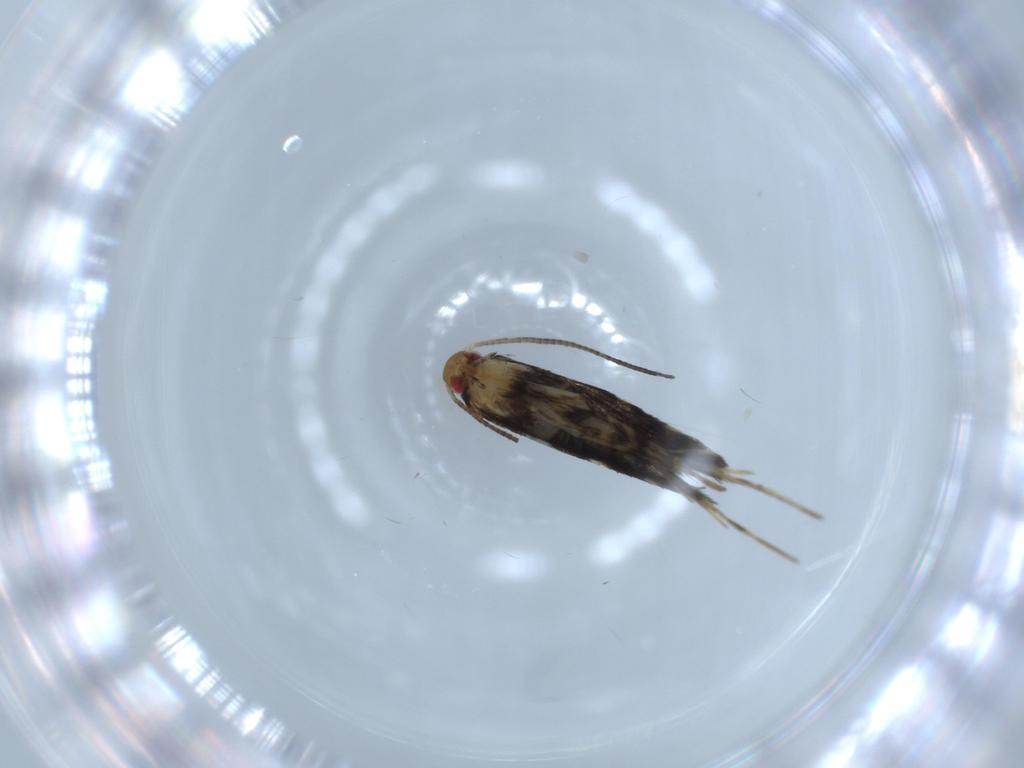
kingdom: Animalia
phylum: Arthropoda
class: Insecta
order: Lepidoptera
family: Gracillariidae
